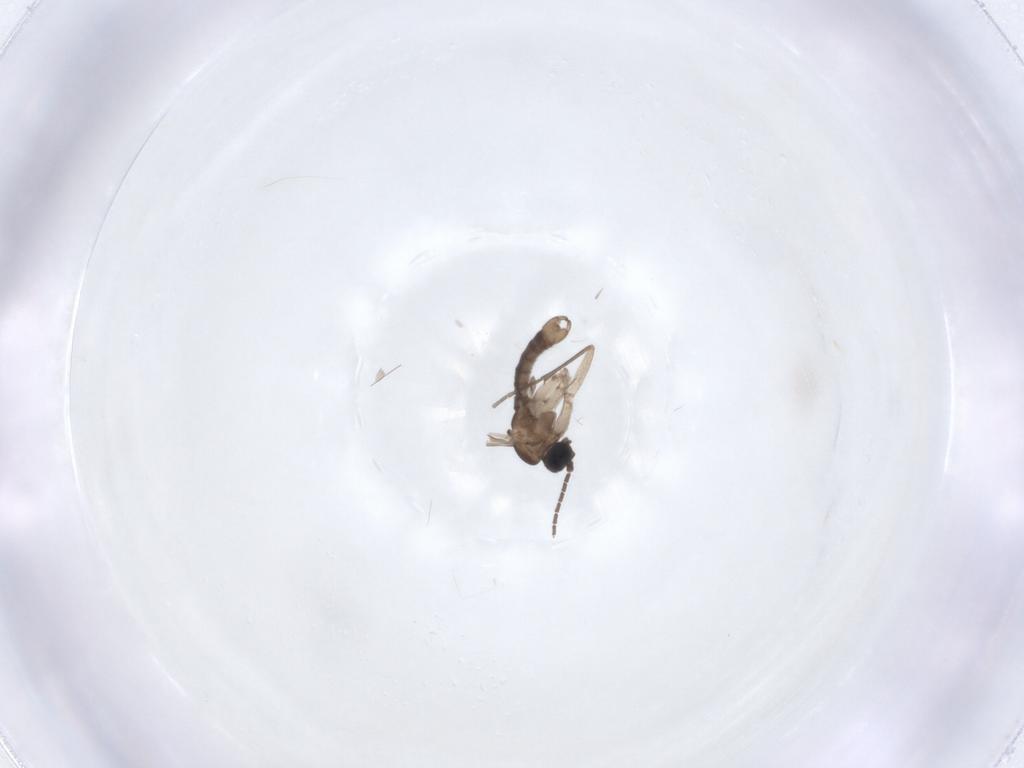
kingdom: Animalia
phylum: Arthropoda
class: Insecta
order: Diptera
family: Sciaridae
